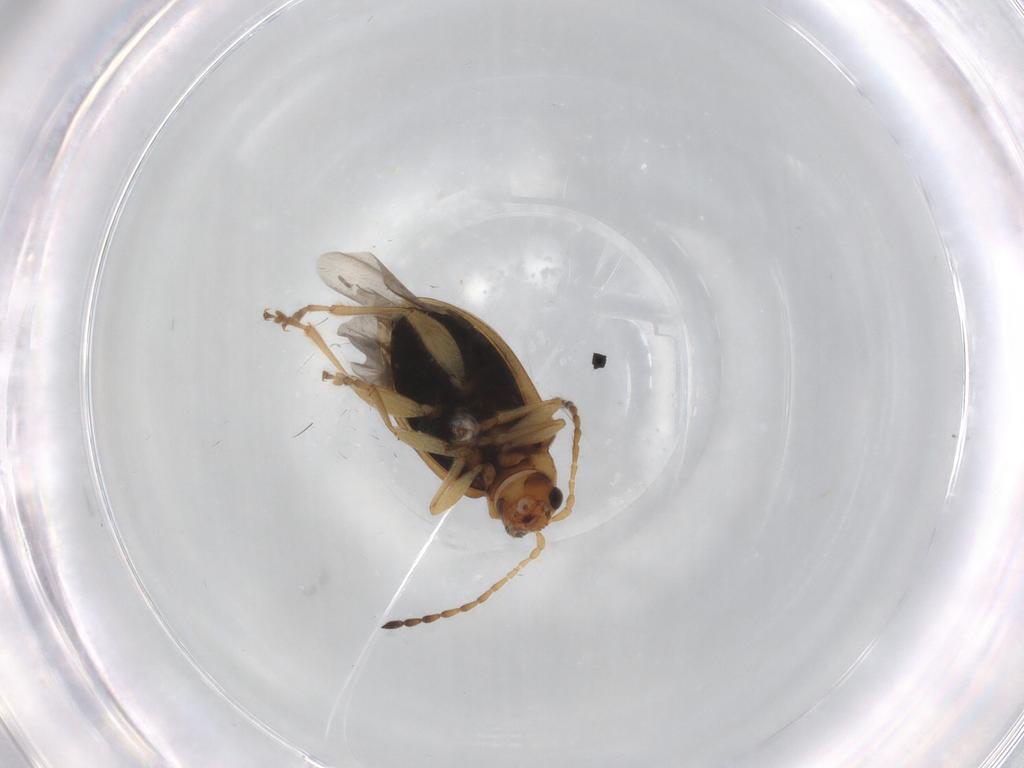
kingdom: Animalia
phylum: Arthropoda
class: Insecta
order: Coleoptera
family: Chrysomelidae
